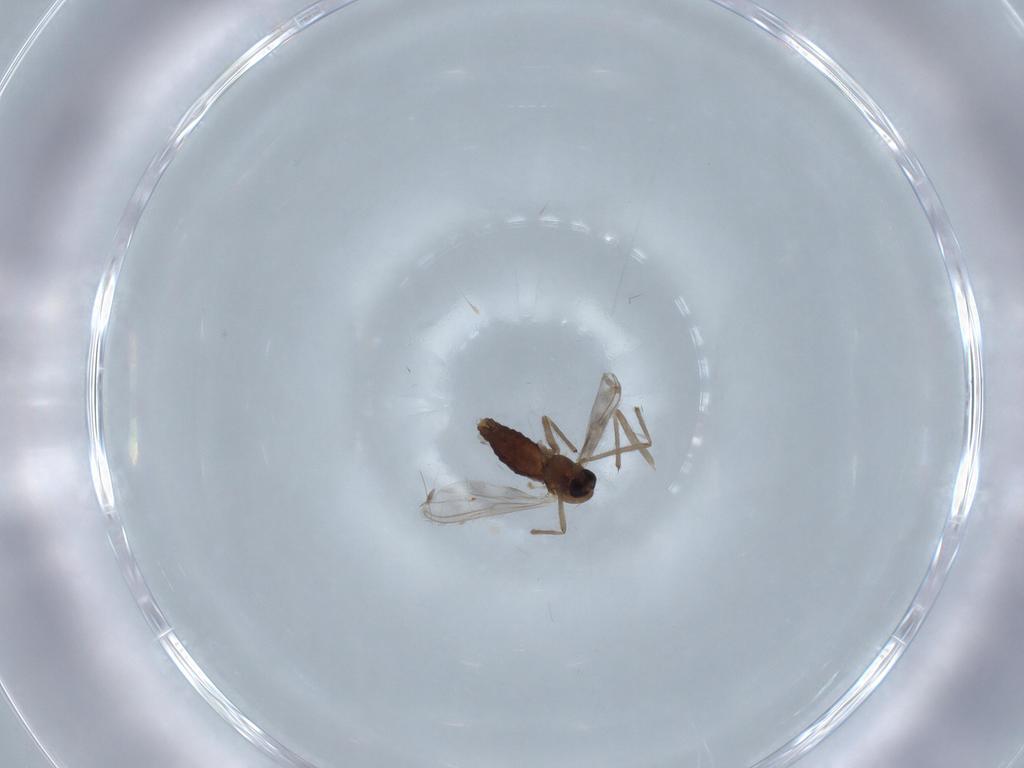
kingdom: Animalia
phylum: Arthropoda
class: Insecta
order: Diptera
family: Chironomidae
